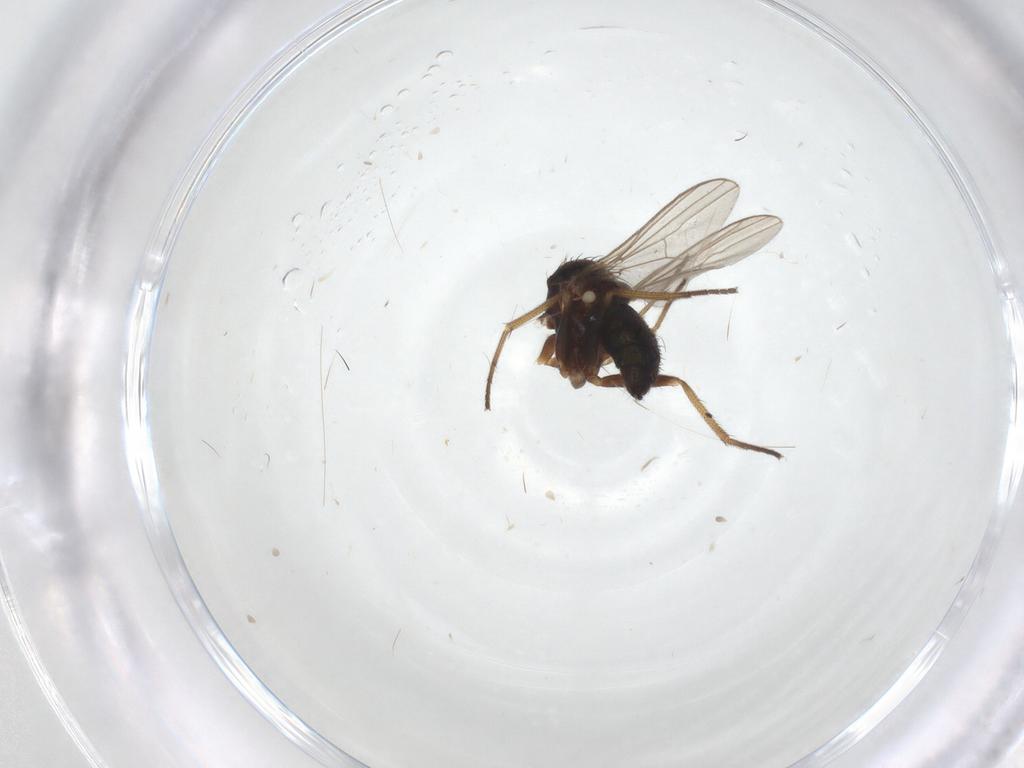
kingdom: Animalia
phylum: Arthropoda
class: Insecta
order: Diptera
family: Dolichopodidae
